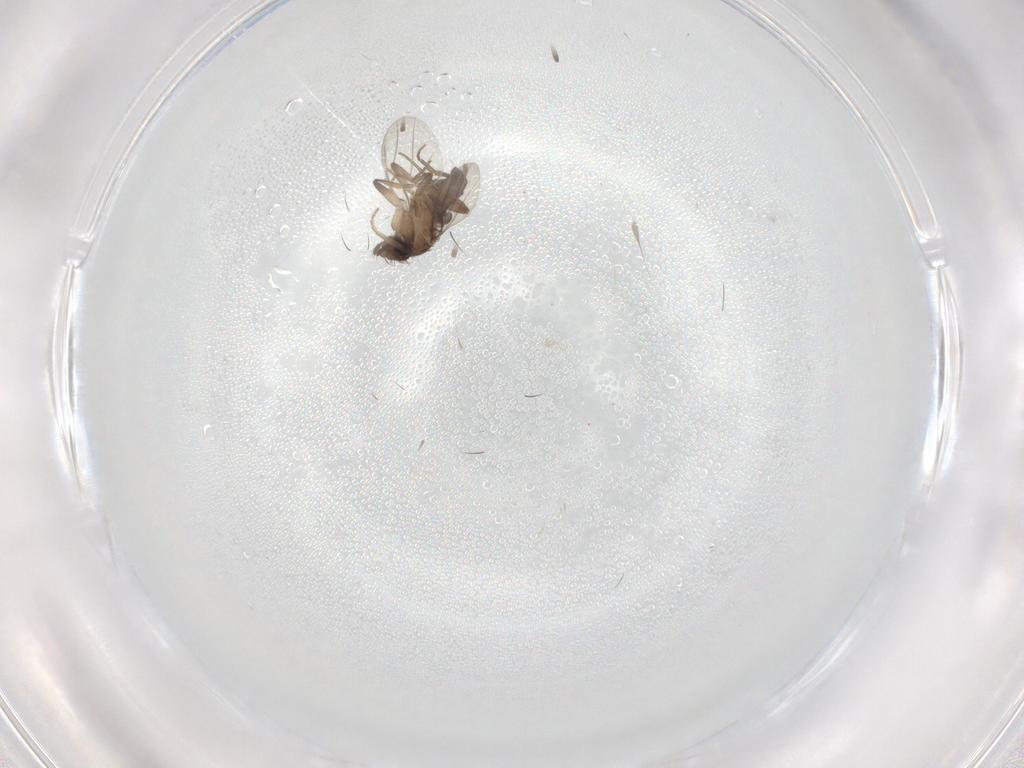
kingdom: Animalia
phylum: Arthropoda
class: Insecta
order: Diptera
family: Phoridae
